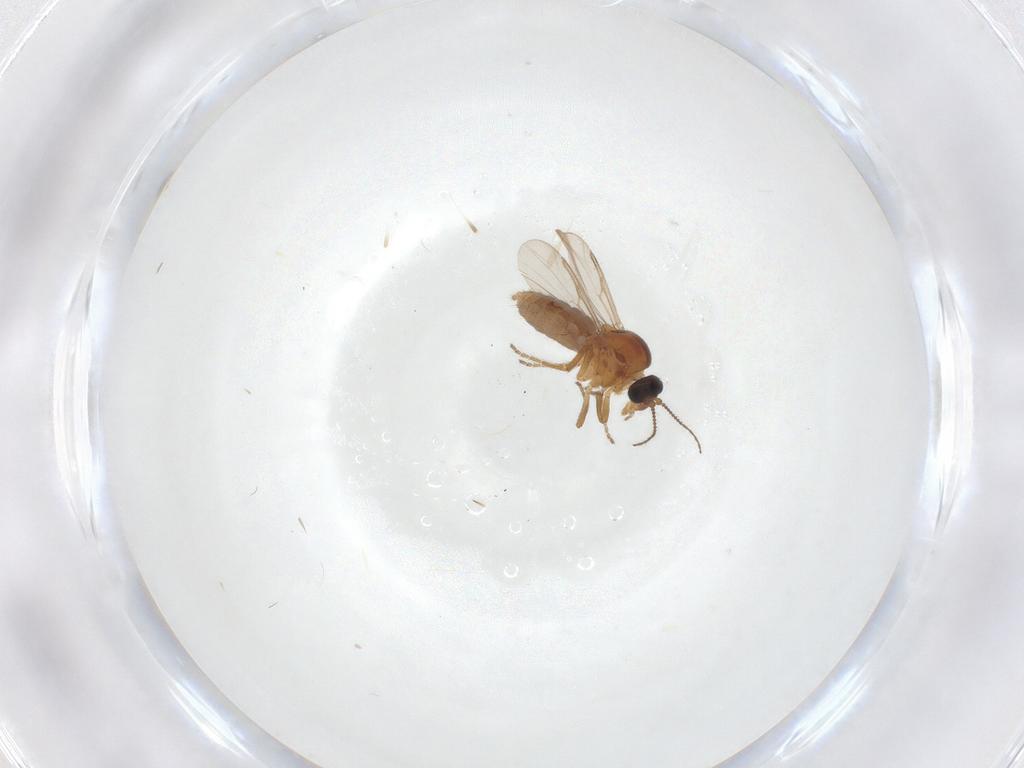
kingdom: Animalia
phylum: Arthropoda
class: Insecta
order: Diptera
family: Ceratopogonidae
